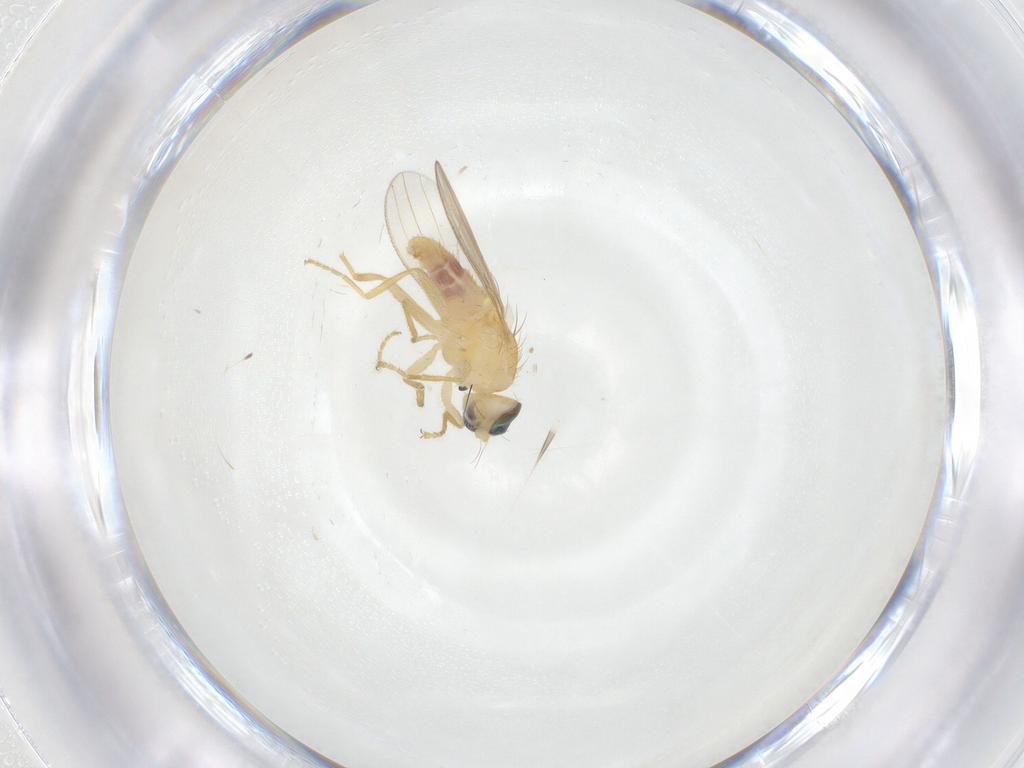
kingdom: Animalia
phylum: Arthropoda
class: Insecta
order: Diptera
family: Chyromyidae
